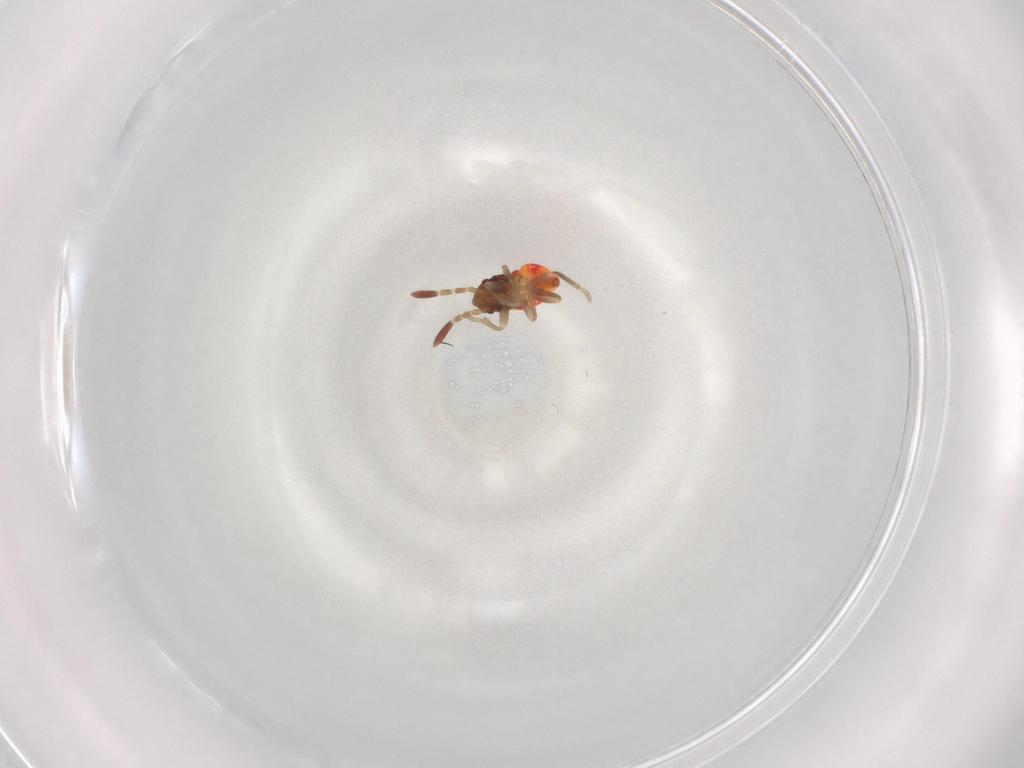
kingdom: Animalia
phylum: Arthropoda
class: Insecta
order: Hemiptera
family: Rhyparochromidae
